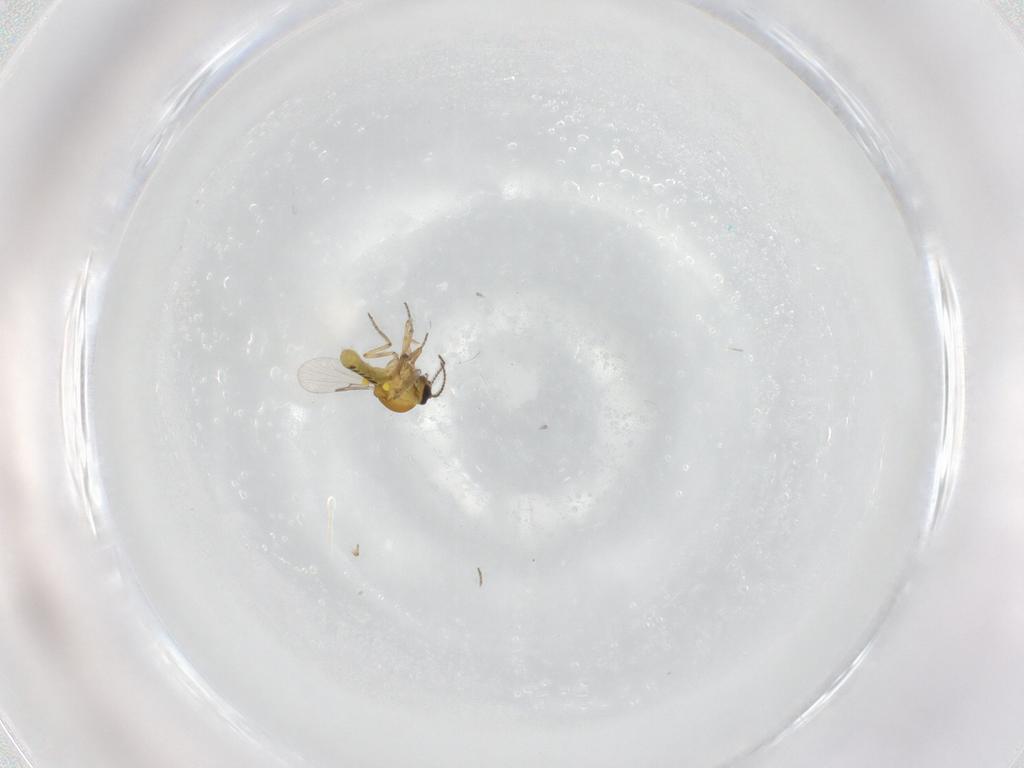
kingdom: Animalia
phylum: Arthropoda
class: Insecta
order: Diptera
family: Ceratopogonidae
